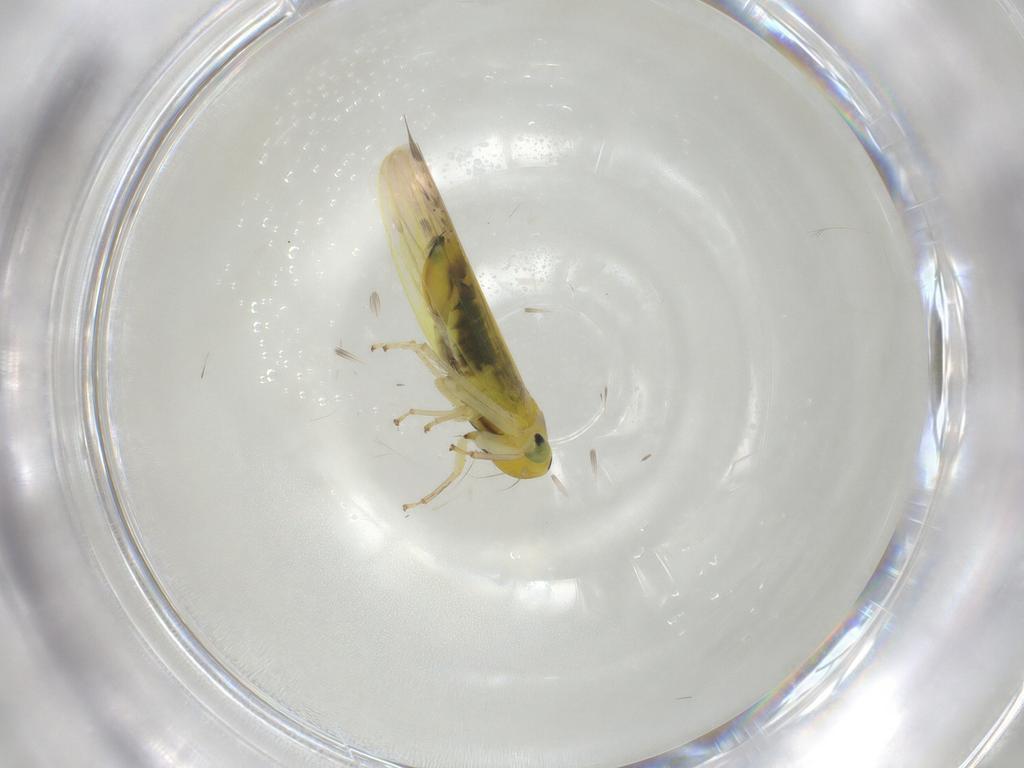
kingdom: Animalia
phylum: Arthropoda
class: Insecta
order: Hemiptera
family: Cicadellidae
